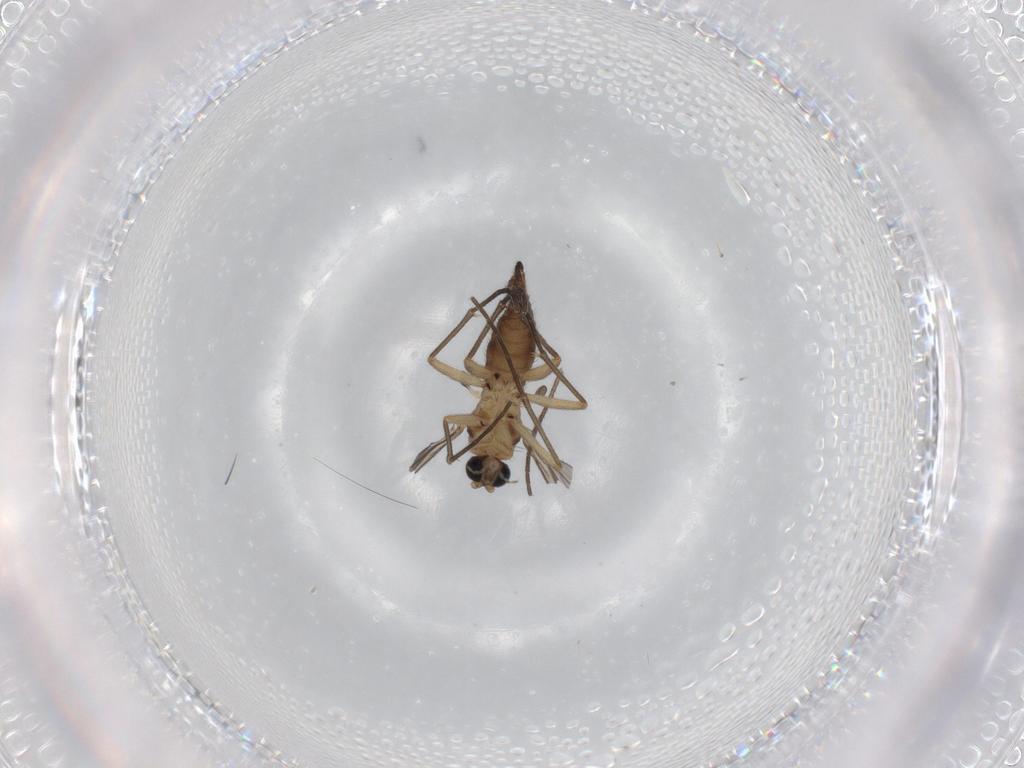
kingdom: Animalia
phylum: Arthropoda
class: Insecta
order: Diptera
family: Sciaridae
